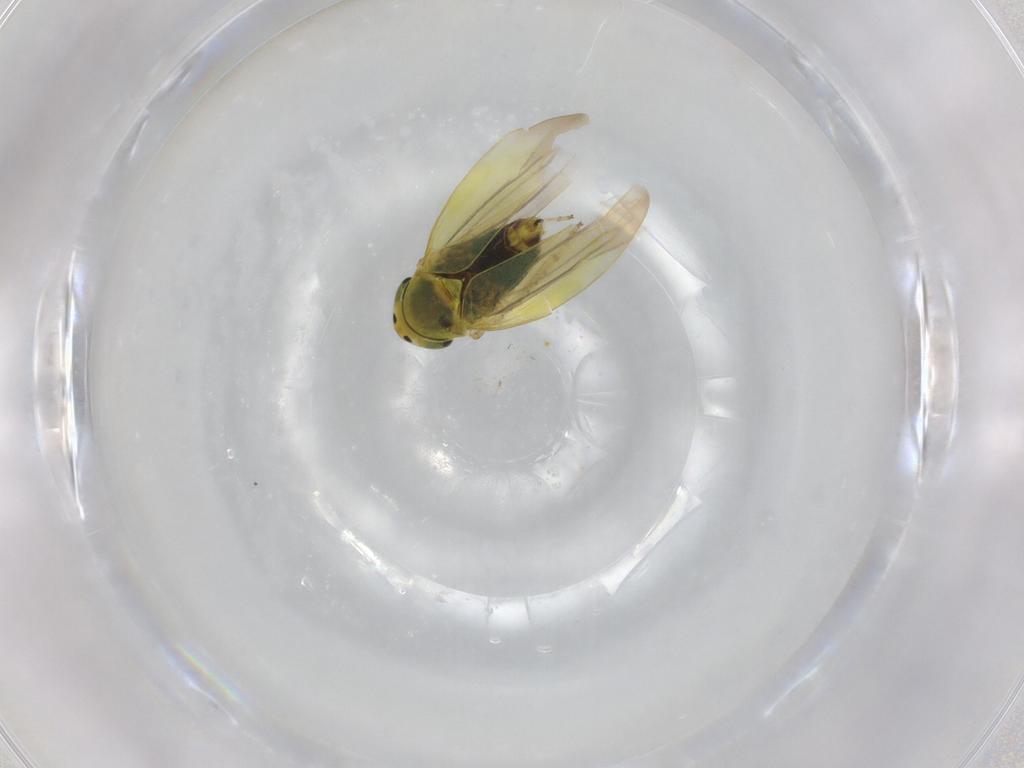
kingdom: Animalia
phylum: Arthropoda
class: Insecta
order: Hemiptera
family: Cicadellidae
